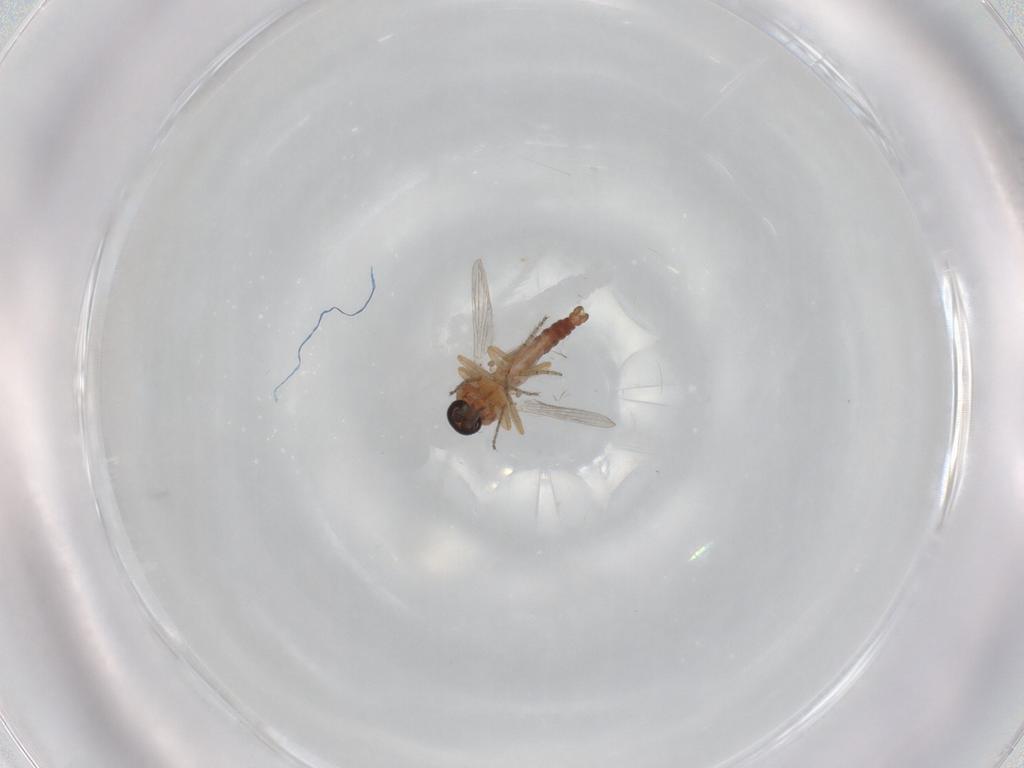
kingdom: Animalia
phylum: Arthropoda
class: Insecta
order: Diptera
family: Ceratopogonidae
